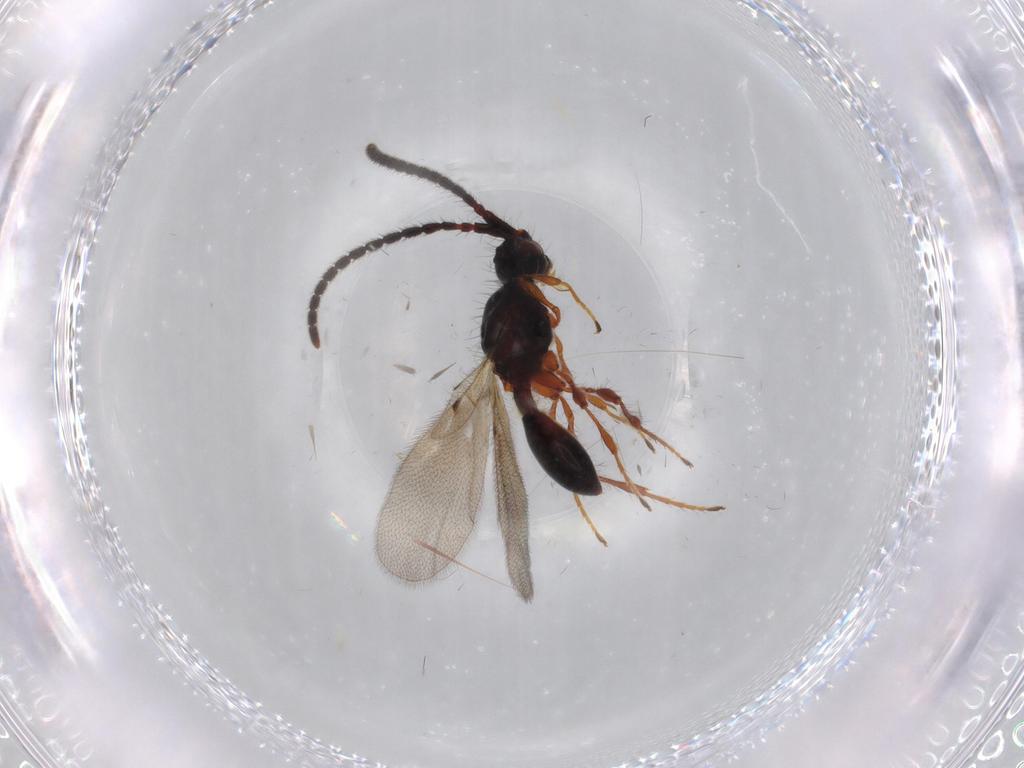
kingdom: Animalia
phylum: Arthropoda
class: Insecta
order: Hymenoptera
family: Diapriidae
